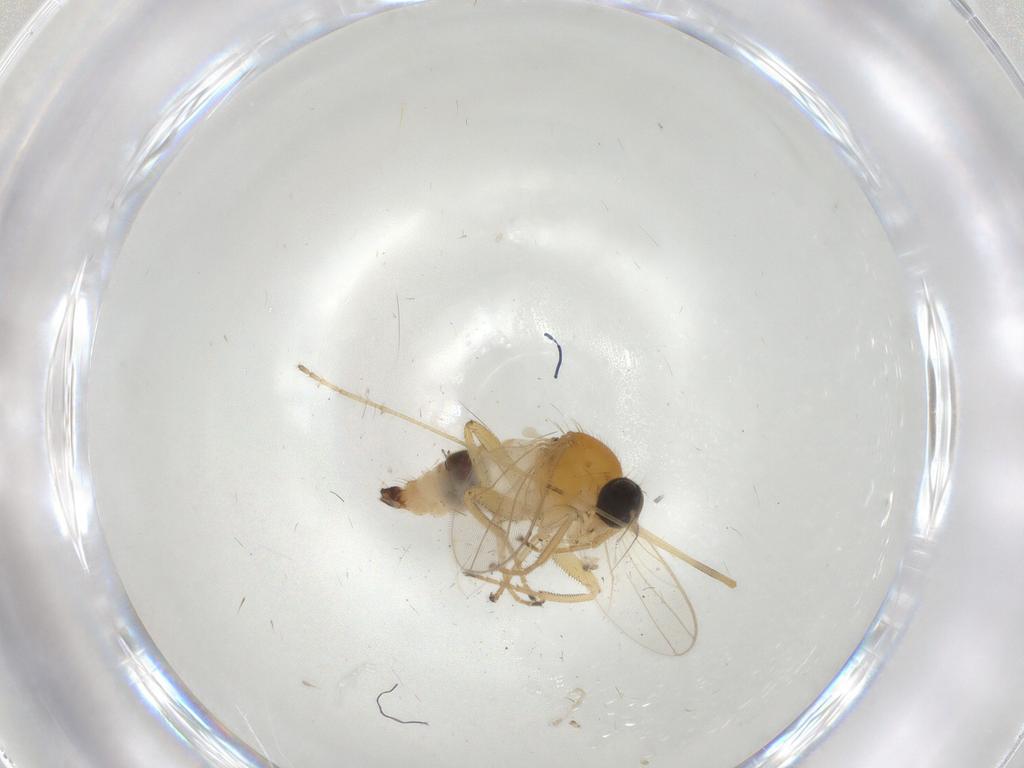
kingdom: Animalia
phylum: Arthropoda
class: Insecta
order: Diptera
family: Hybotidae
